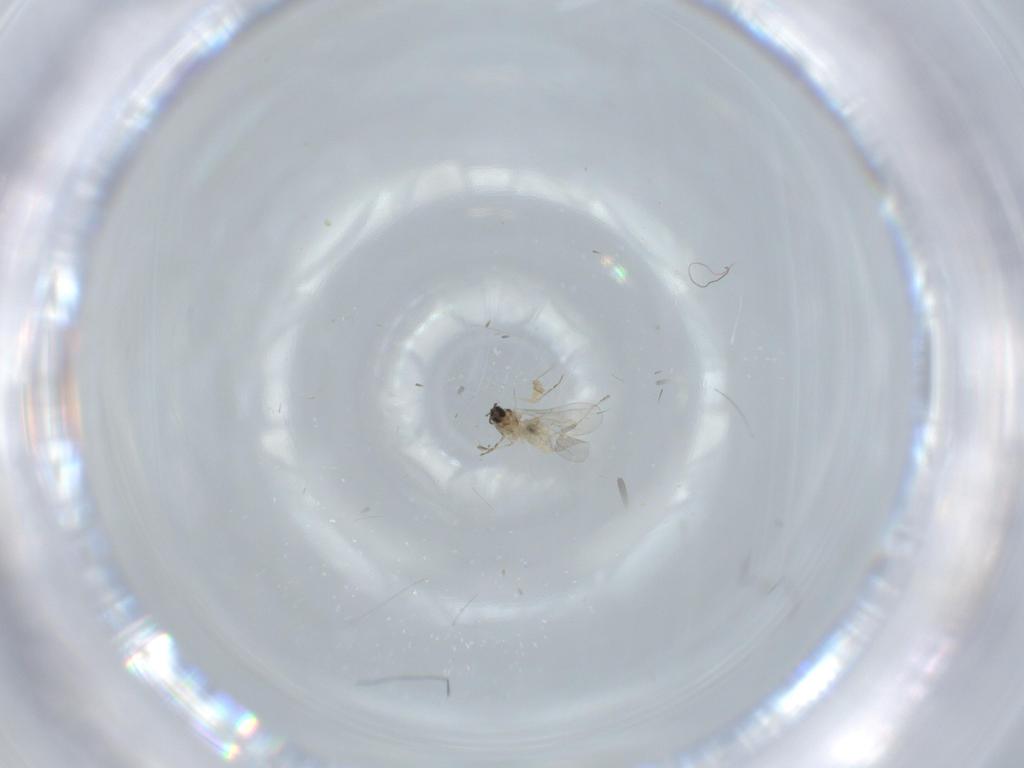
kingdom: Animalia
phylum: Arthropoda
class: Insecta
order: Diptera
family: Chironomidae
